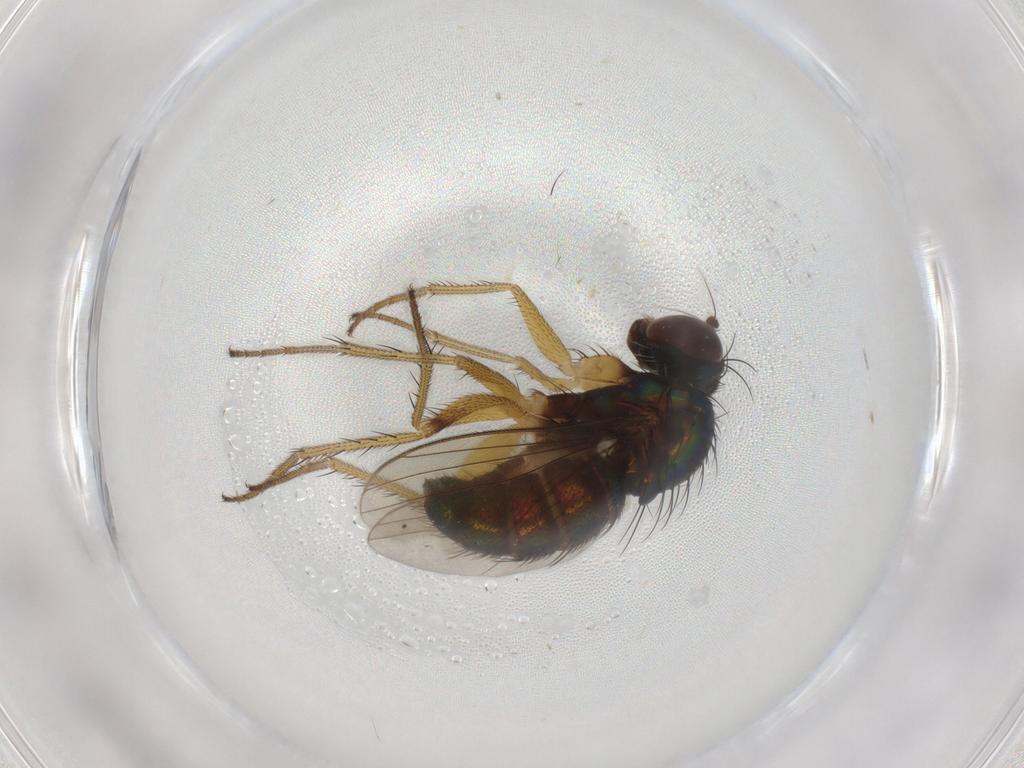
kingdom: Animalia
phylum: Arthropoda
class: Insecta
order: Diptera
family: Dolichopodidae
